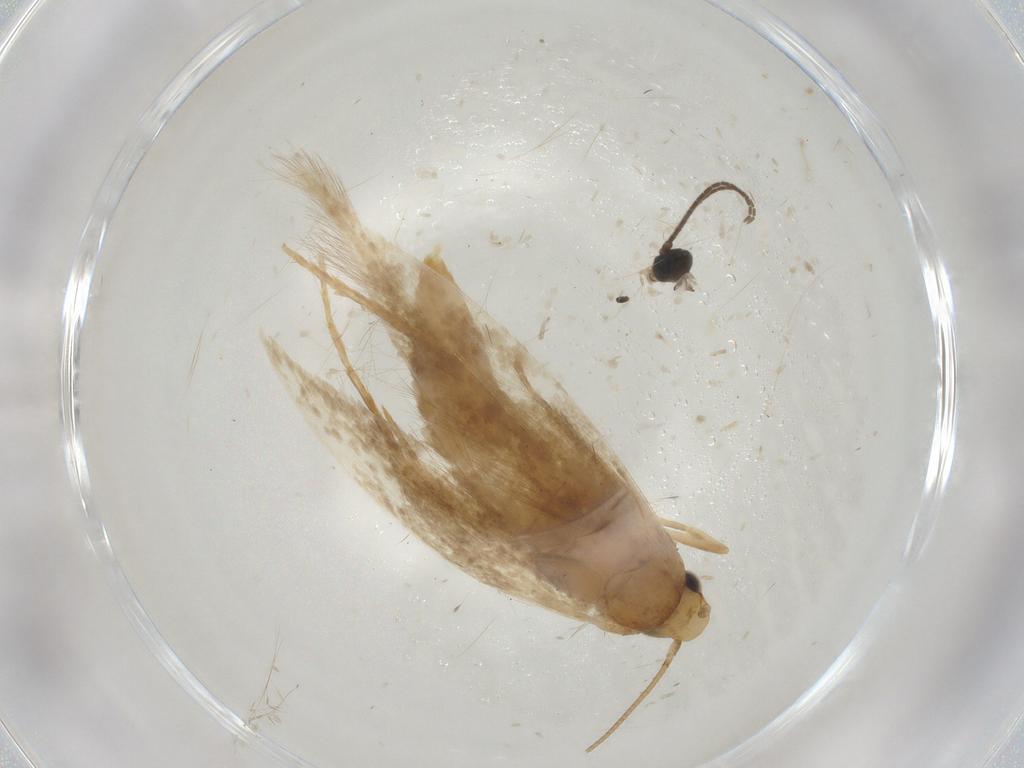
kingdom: Animalia
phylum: Arthropoda
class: Insecta
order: Lepidoptera
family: Tineidae
